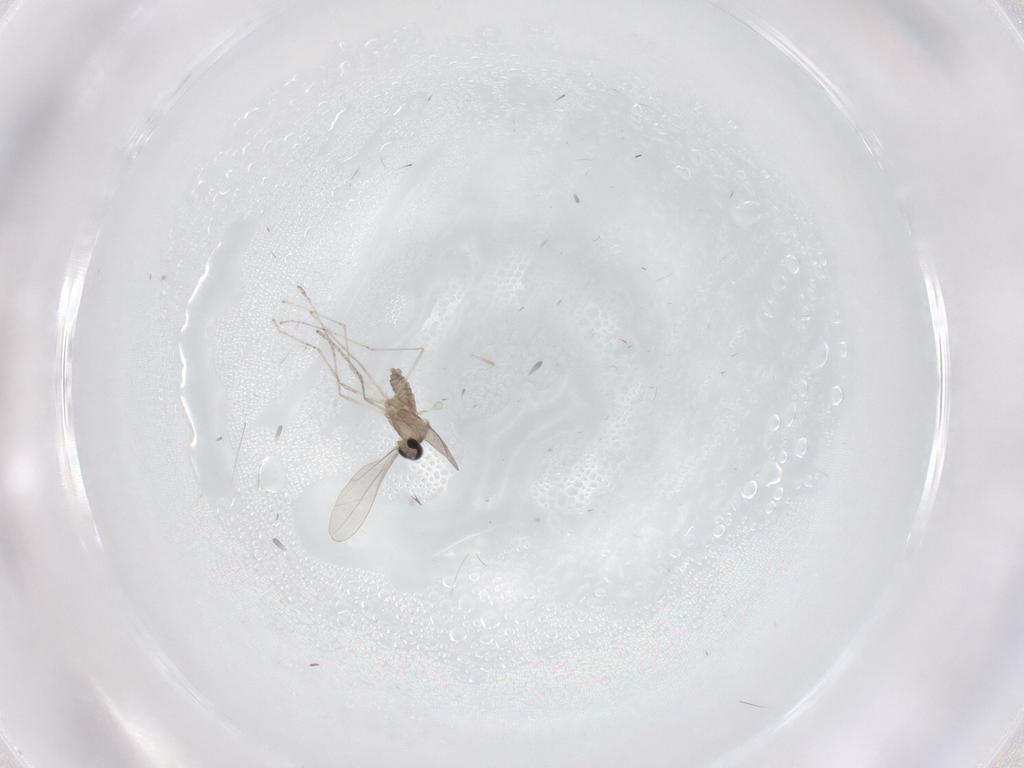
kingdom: Animalia
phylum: Arthropoda
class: Insecta
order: Diptera
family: Cecidomyiidae
